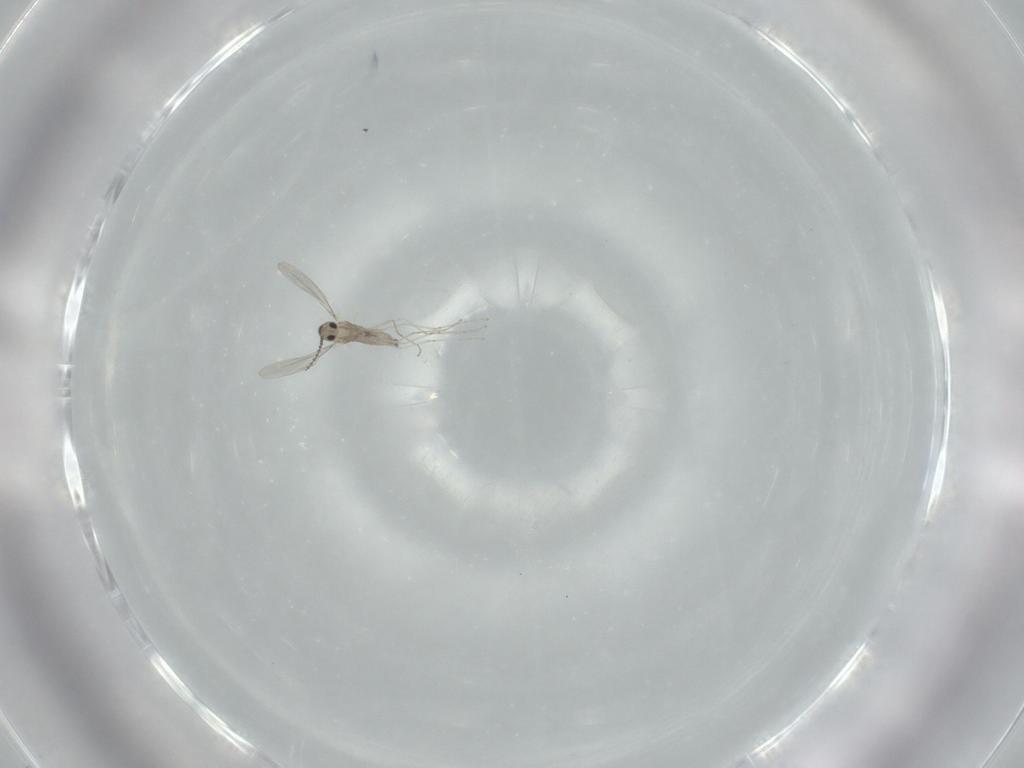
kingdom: Animalia
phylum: Arthropoda
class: Insecta
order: Diptera
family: Cecidomyiidae
